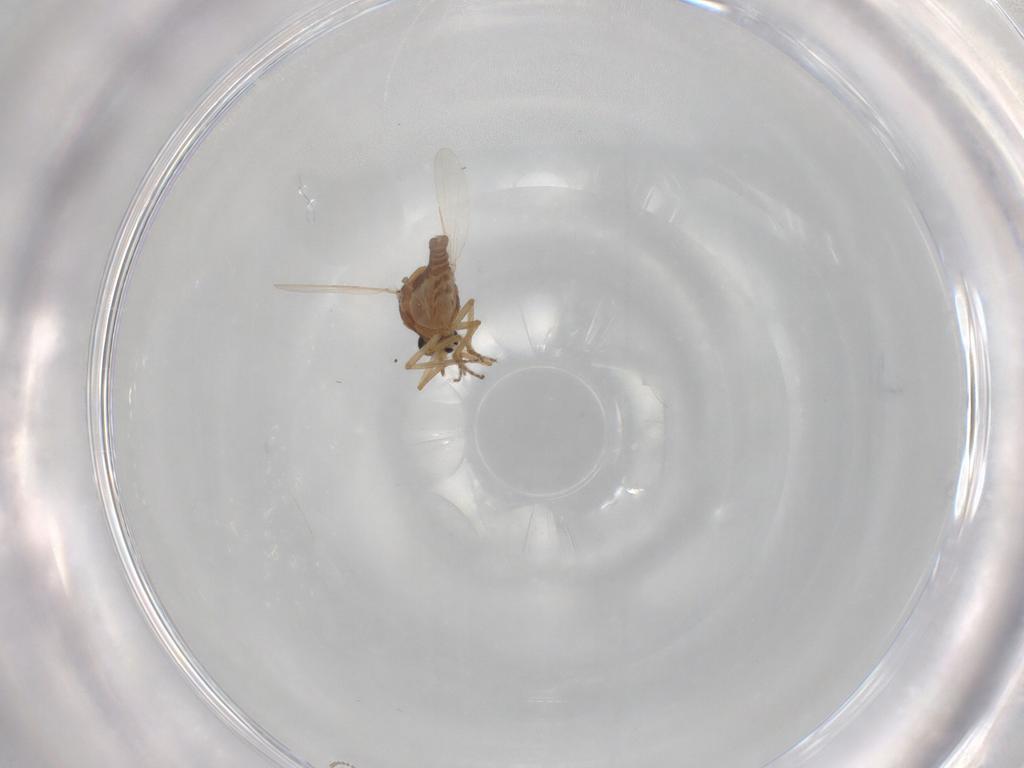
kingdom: Animalia
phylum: Arthropoda
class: Insecta
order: Diptera
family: Ceratopogonidae
